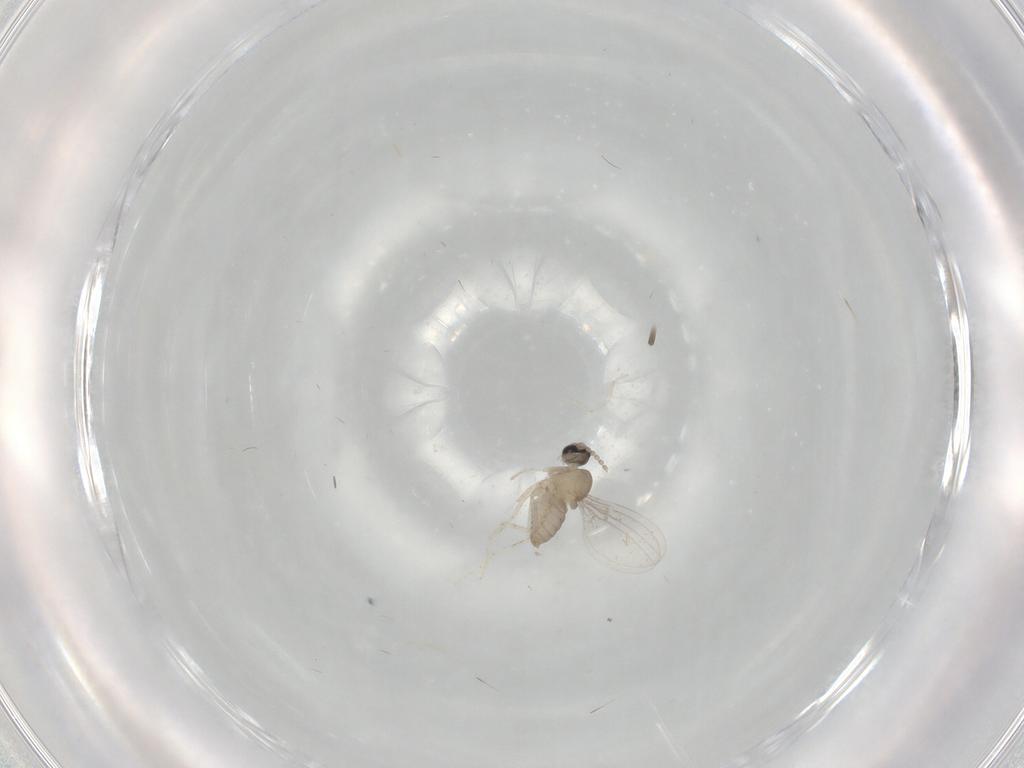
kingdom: Animalia
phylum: Arthropoda
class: Insecta
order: Diptera
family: Cecidomyiidae
